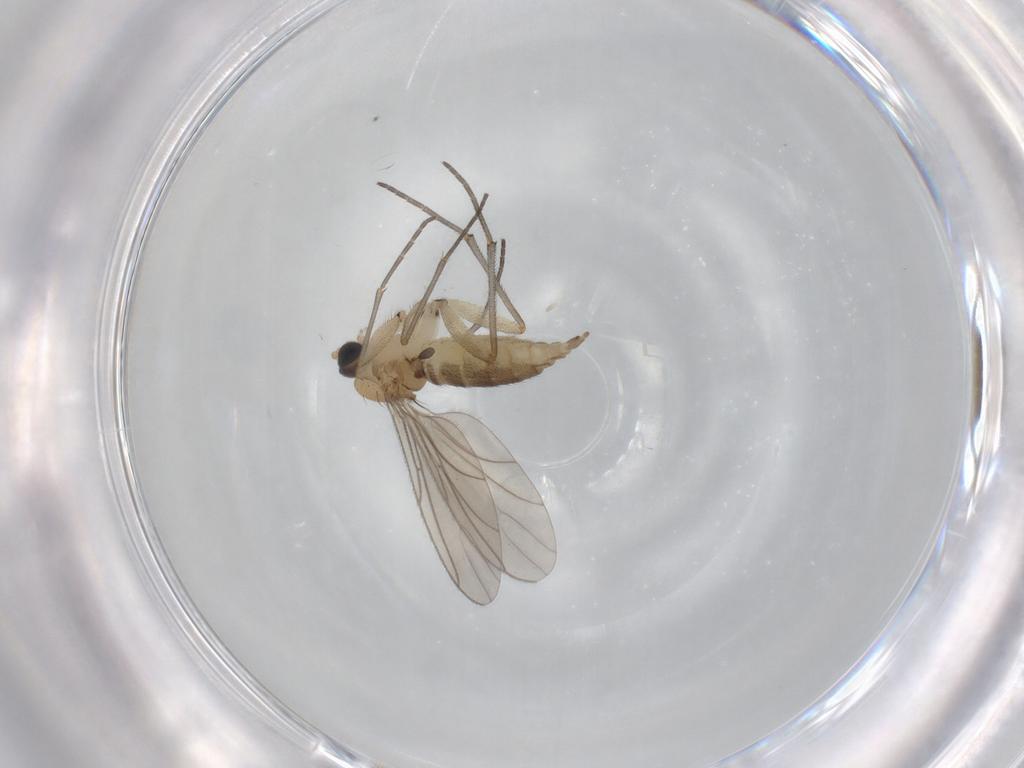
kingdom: Animalia
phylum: Arthropoda
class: Insecta
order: Diptera
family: Sciaridae
